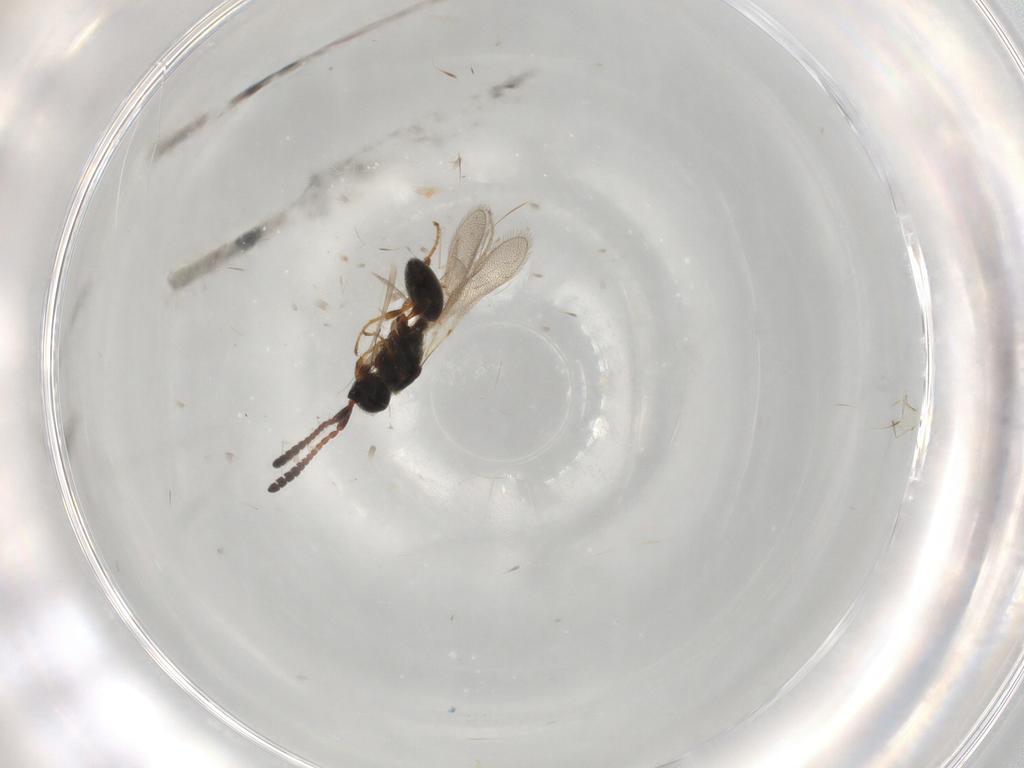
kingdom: Animalia
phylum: Arthropoda
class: Insecta
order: Hymenoptera
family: Diapriidae
